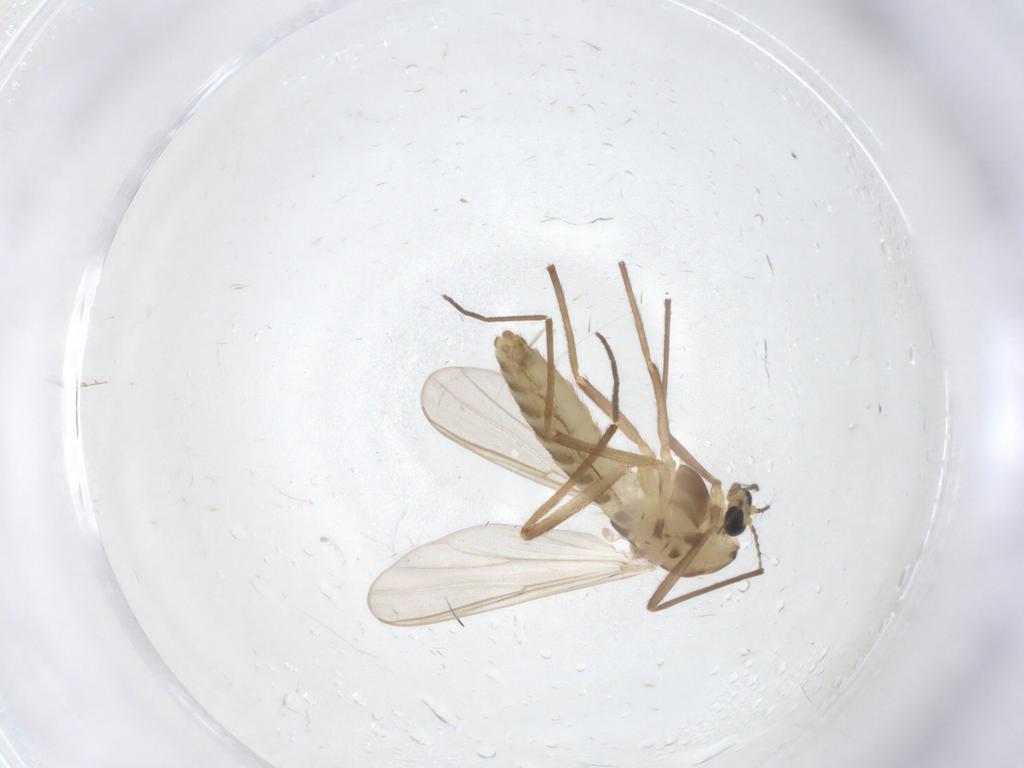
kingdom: Animalia
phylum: Arthropoda
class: Insecta
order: Diptera
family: Chironomidae
